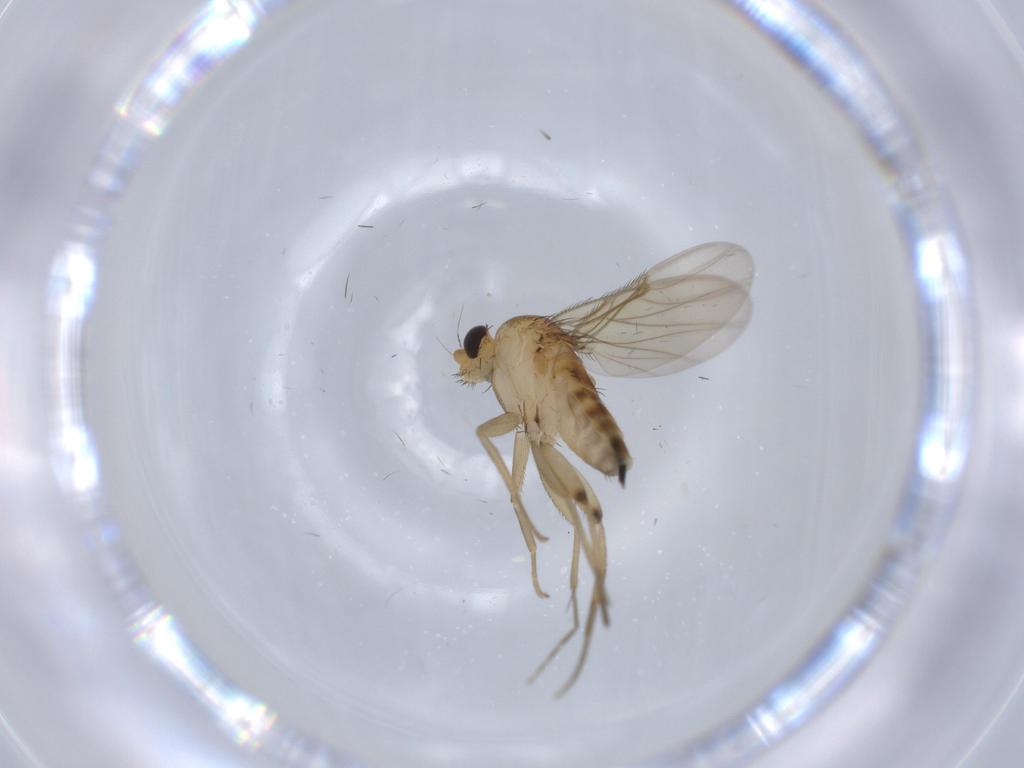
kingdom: Animalia
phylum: Arthropoda
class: Insecta
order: Diptera
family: Phoridae
